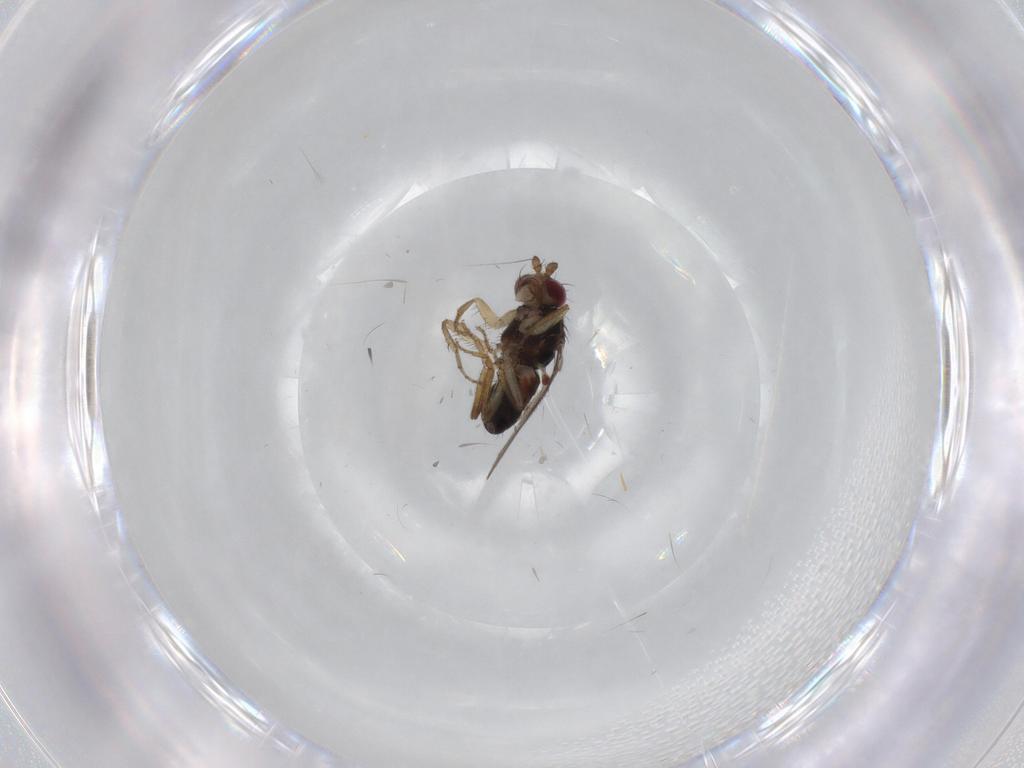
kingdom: Animalia
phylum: Arthropoda
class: Insecta
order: Diptera
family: Sphaeroceridae
